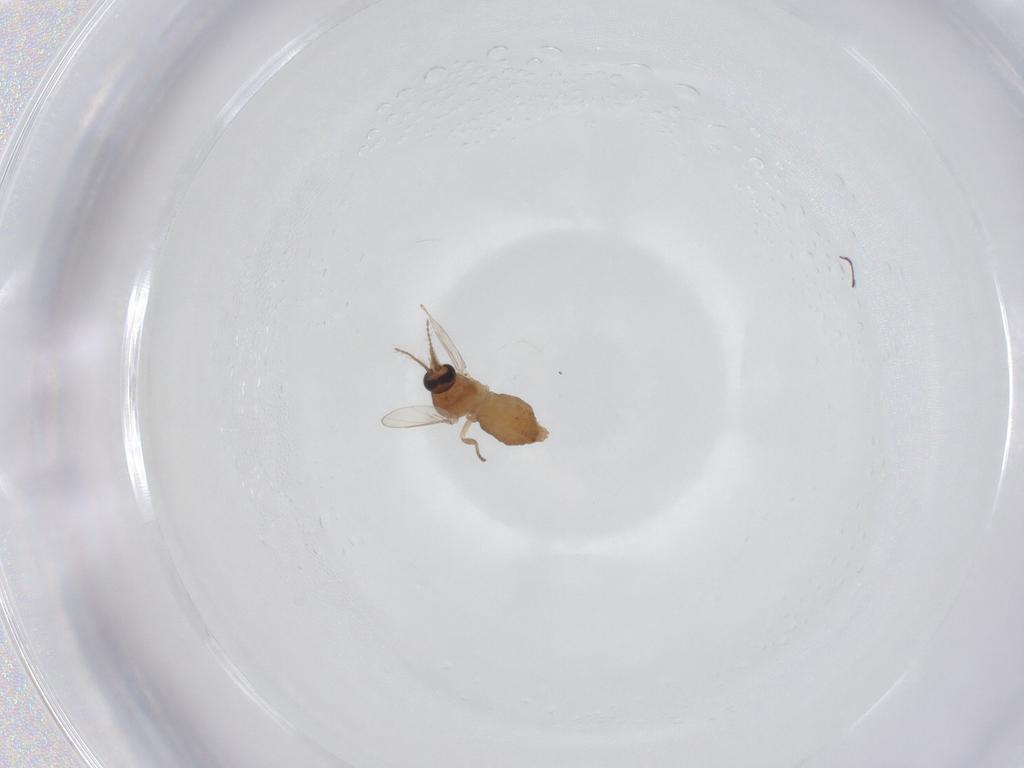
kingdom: Animalia
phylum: Arthropoda
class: Insecta
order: Diptera
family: Ceratopogonidae
